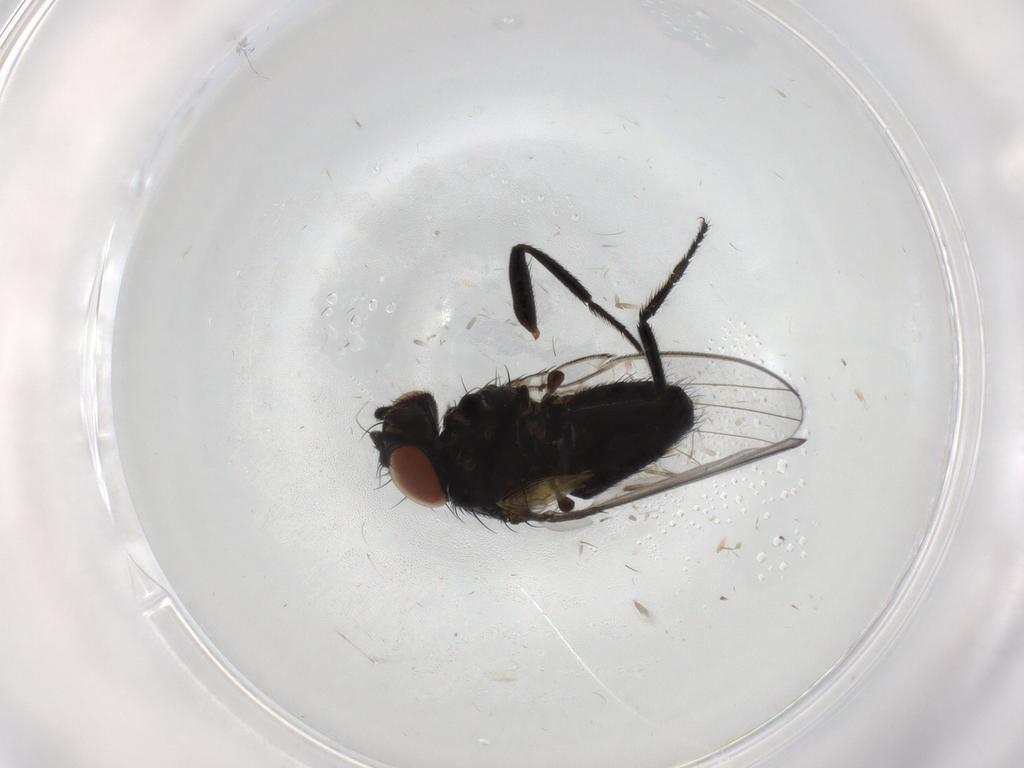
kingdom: Animalia
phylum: Arthropoda
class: Insecta
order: Diptera
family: Milichiidae
